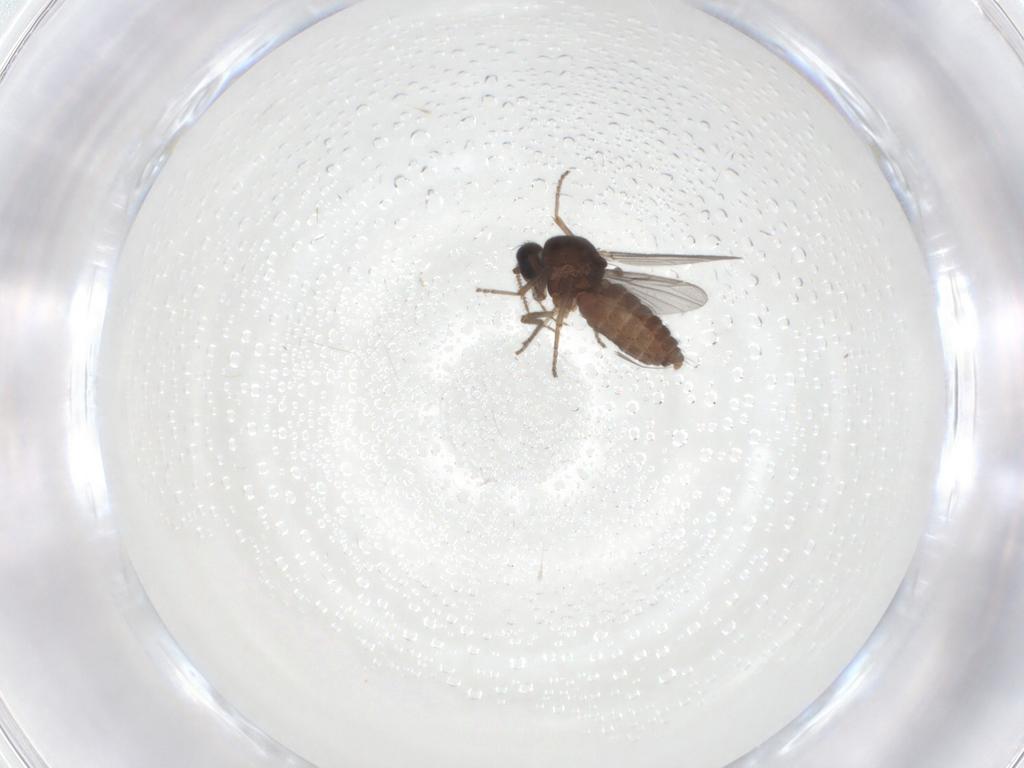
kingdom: Animalia
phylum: Arthropoda
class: Insecta
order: Diptera
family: Ceratopogonidae
